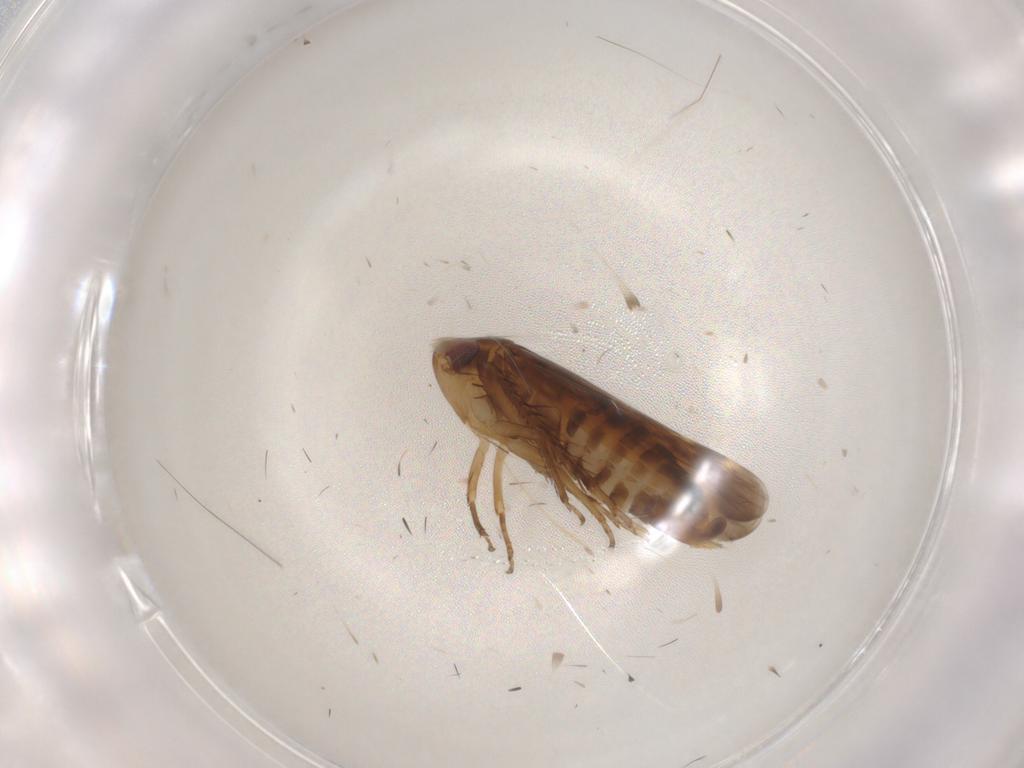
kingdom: Animalia
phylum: Arthropoda
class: Insecta
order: Hemiptera
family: Cicadellidae
